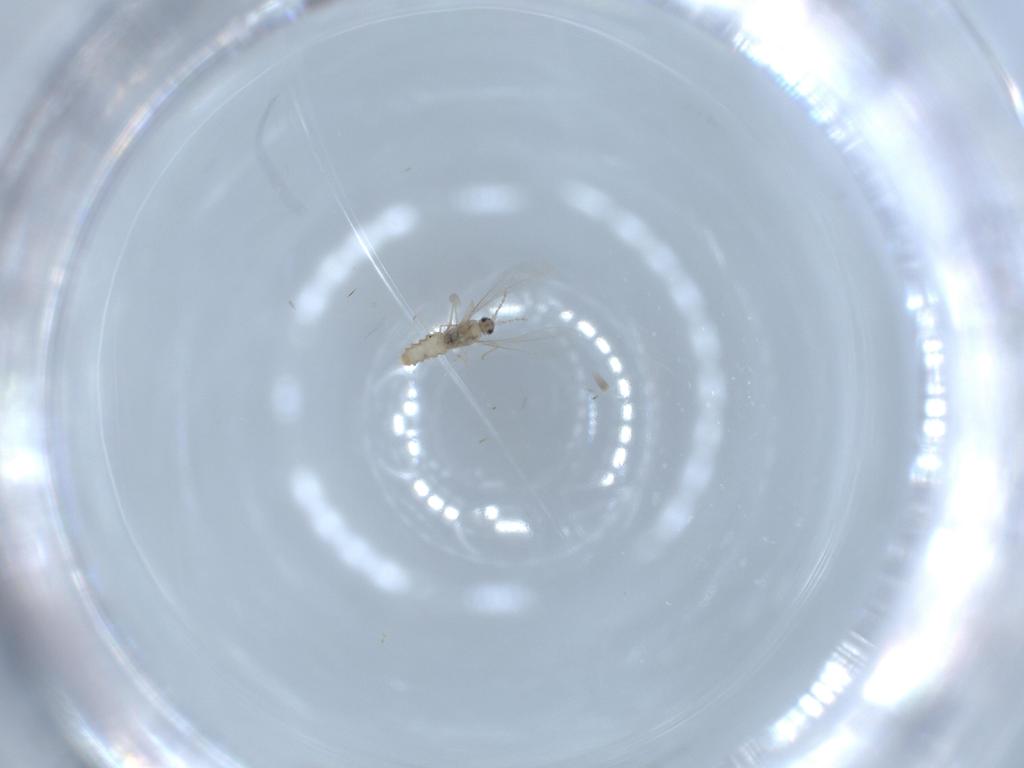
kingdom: Animalia
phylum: Arthropoda
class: Insecta
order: Diptera
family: Cecidomyiidae
